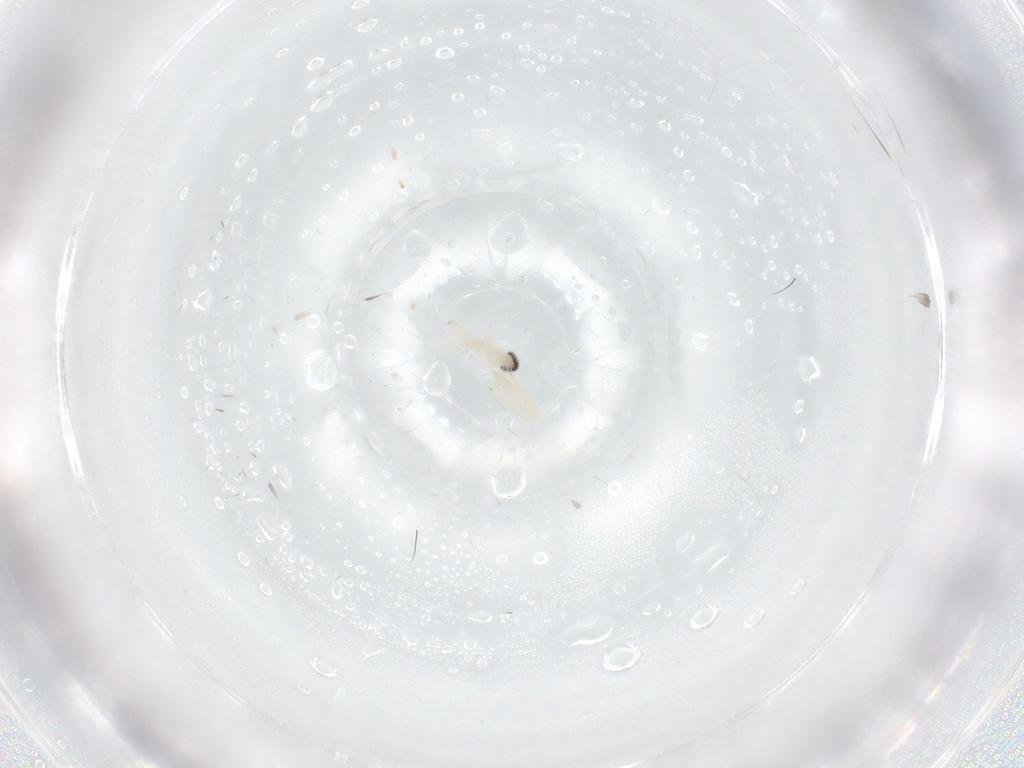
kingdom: Animalia
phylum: Arthropoda
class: Insecta
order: Diptera
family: Cecidomyiidae
